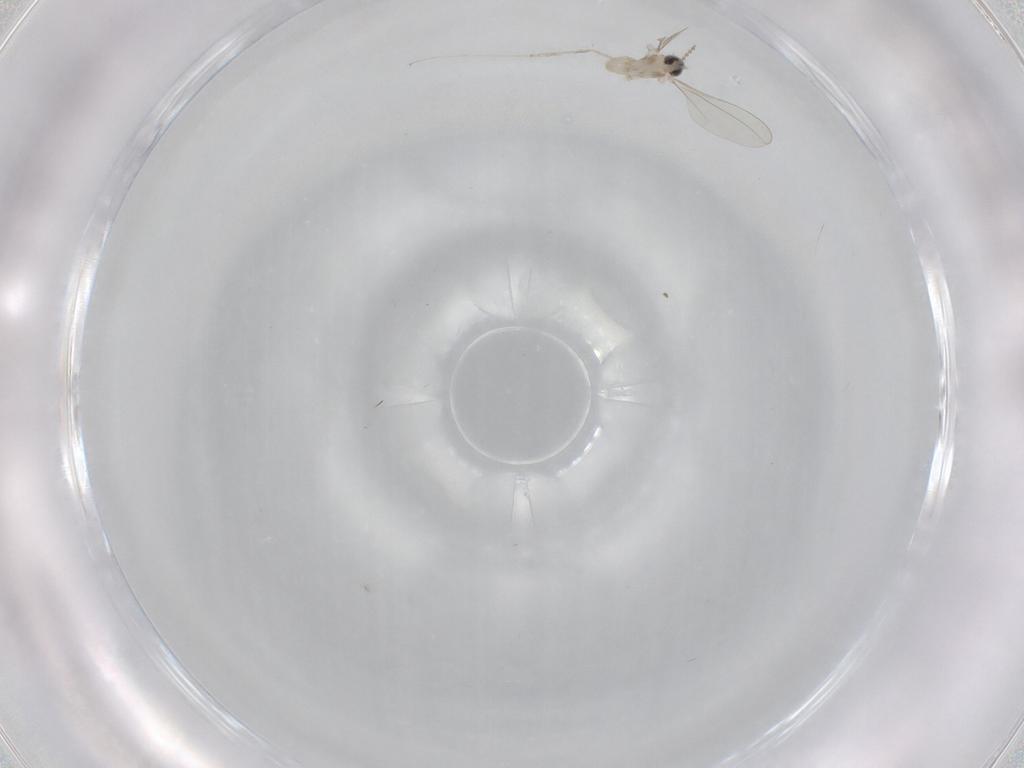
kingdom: Animalia
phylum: Arthropoda
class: Insecta
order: Diptera
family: Cecidomyiidae
